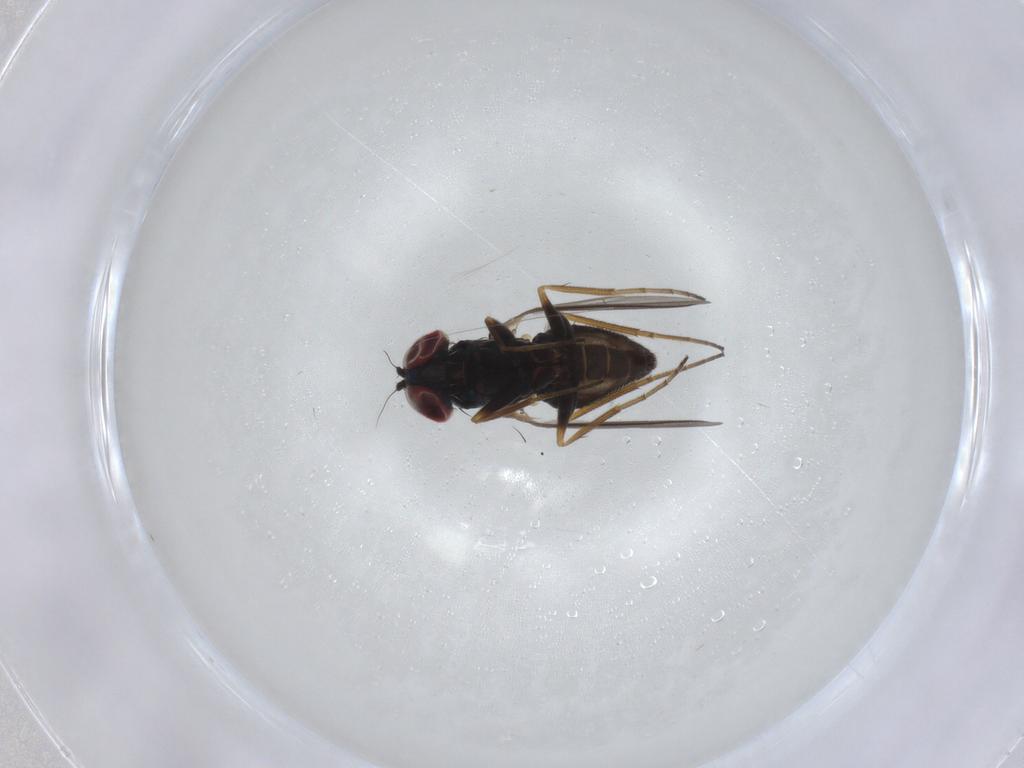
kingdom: Animalia
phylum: Arthropoda
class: Insecta
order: Diptera
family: Dolichopodidae
